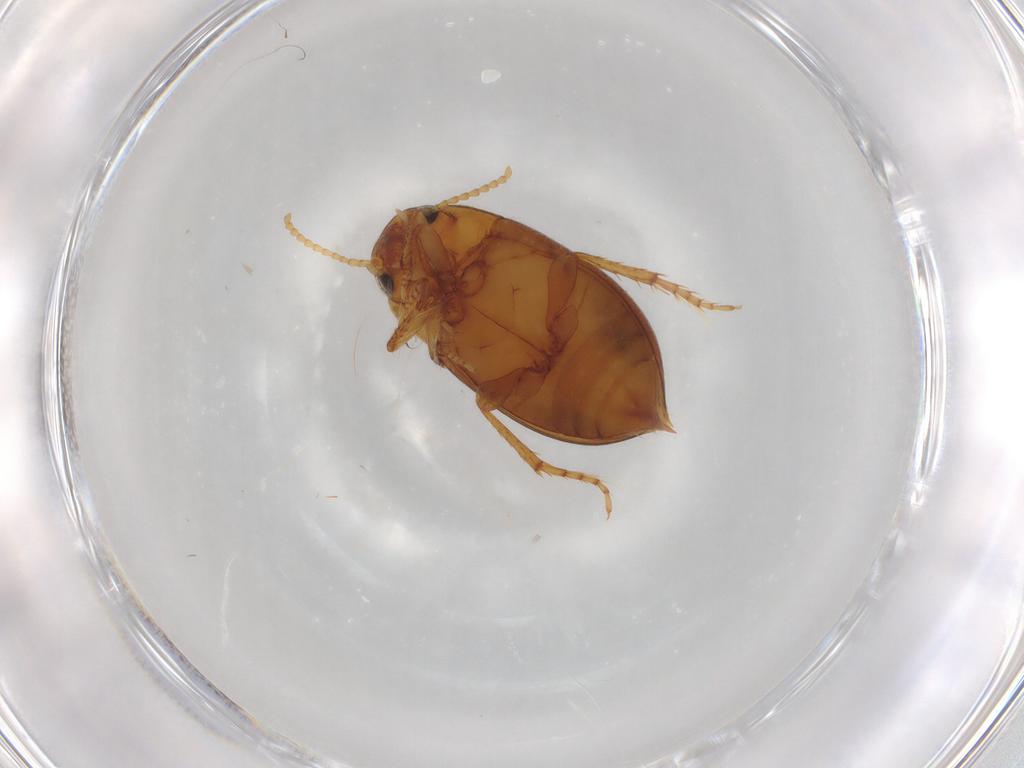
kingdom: Animalia
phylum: Arthropoda
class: Insecta
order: Coleoptera
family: Dytiscidae
